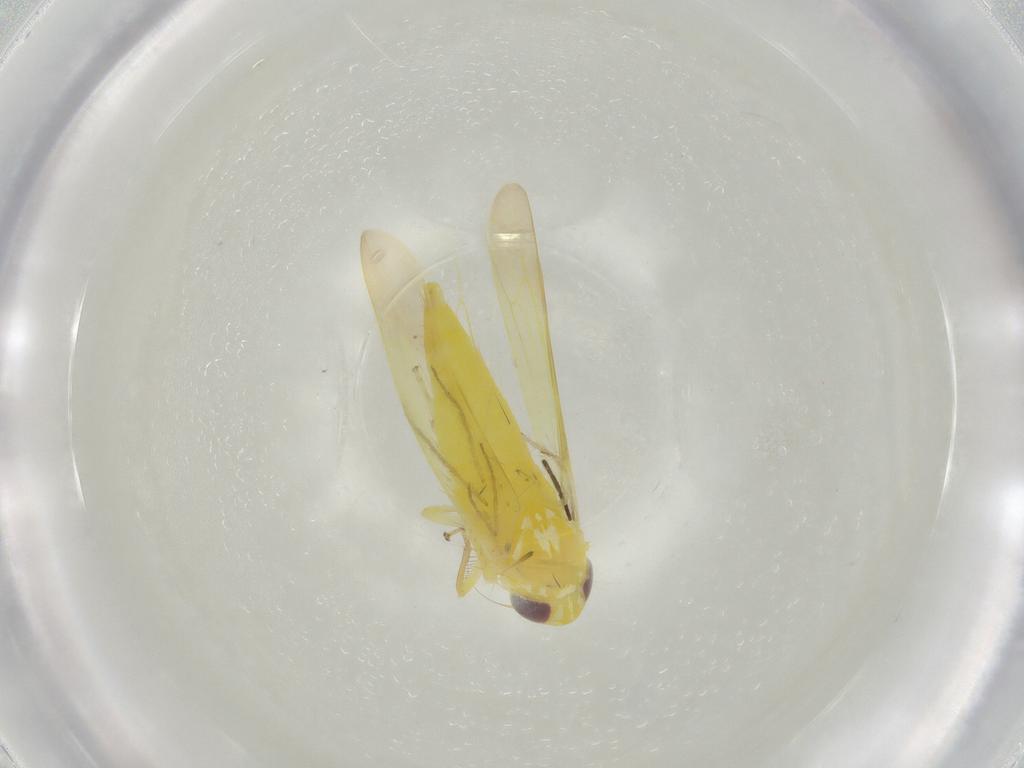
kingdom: Animalia
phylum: Arthropoda
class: Insecta
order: Hemiptera
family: Cicadellidae
